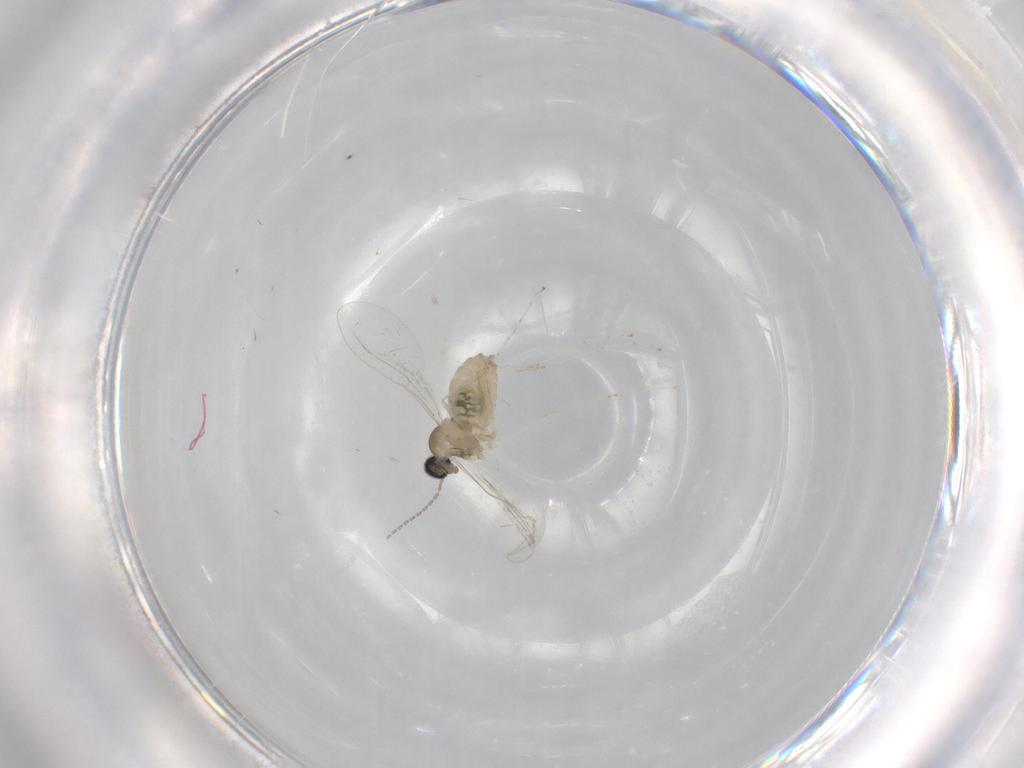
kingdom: Animalia
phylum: Arthropoda
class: Insecta
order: Diptera
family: Cecidomyiidae
